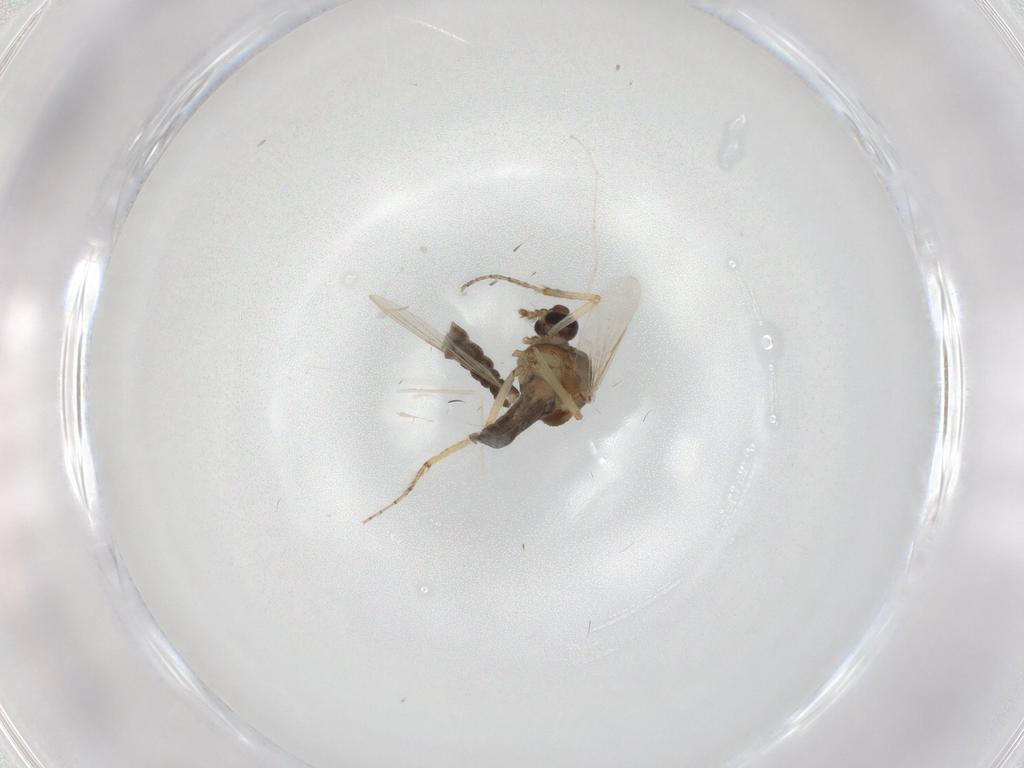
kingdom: Animalia
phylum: Arthropoda
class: Insecta
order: Diptera
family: Ceratopogonidae
